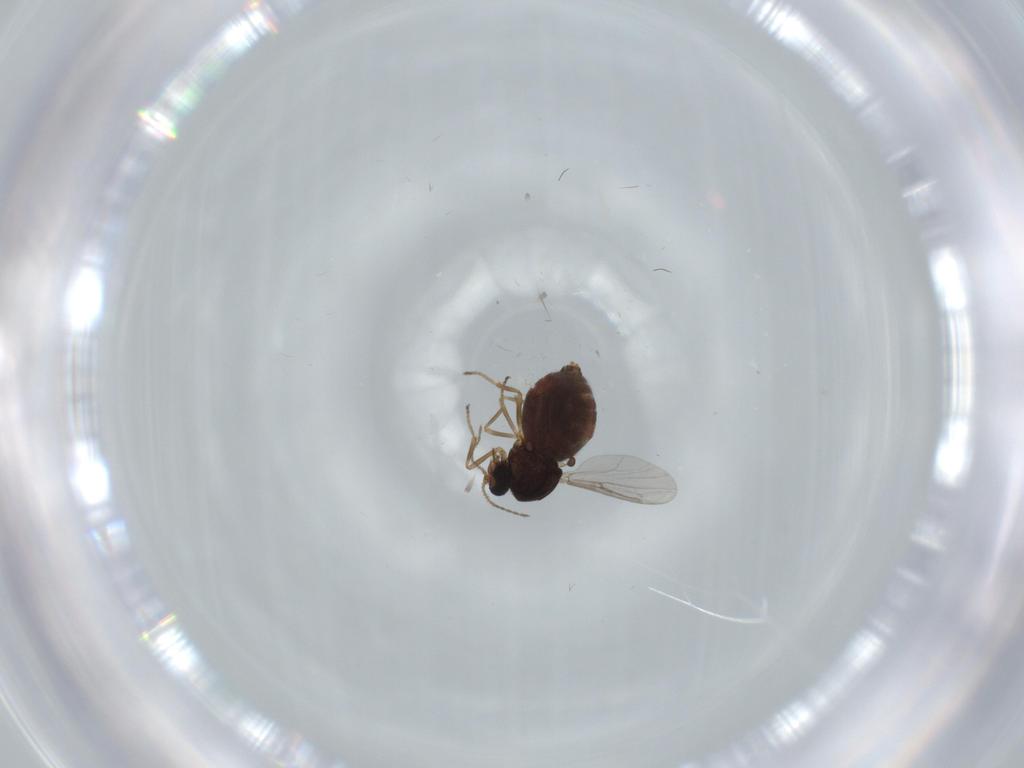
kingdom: Animalia
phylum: Arthropoda
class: Insecta
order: Diptera
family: Ceratopogonidae
